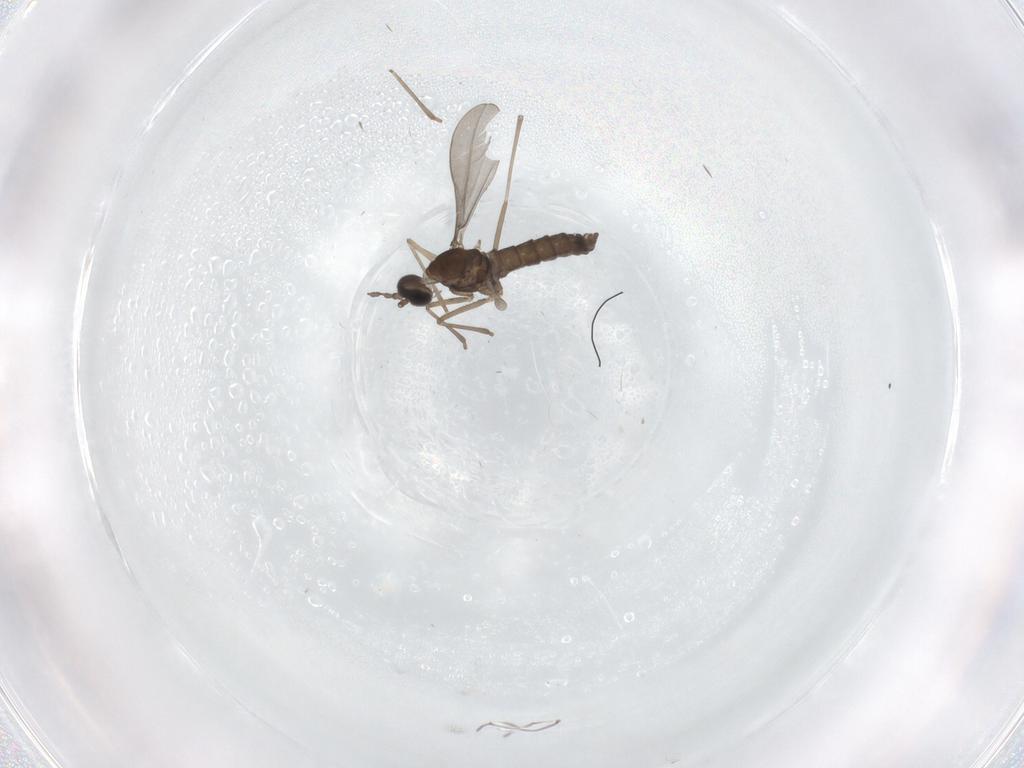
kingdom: Animalia
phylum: Arthropoda
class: Insecta
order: Diptera
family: Cecidomyiidae
